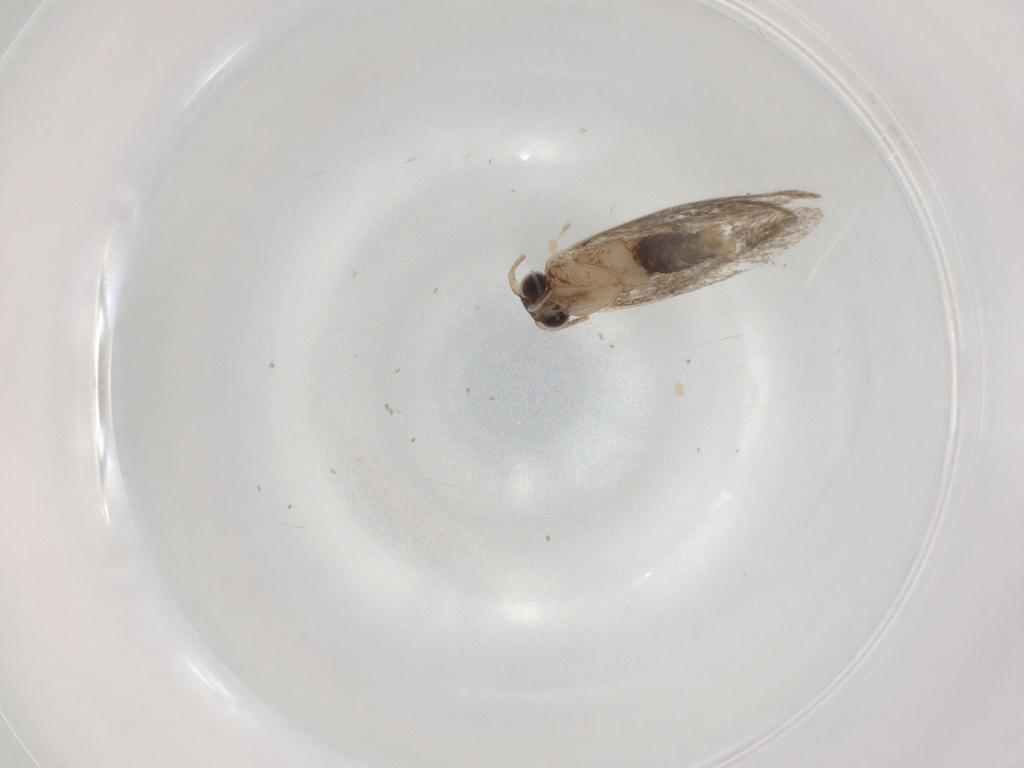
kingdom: Animalia
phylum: Arthropoda
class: Insecta
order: Lepidoptera
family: Tineidae
